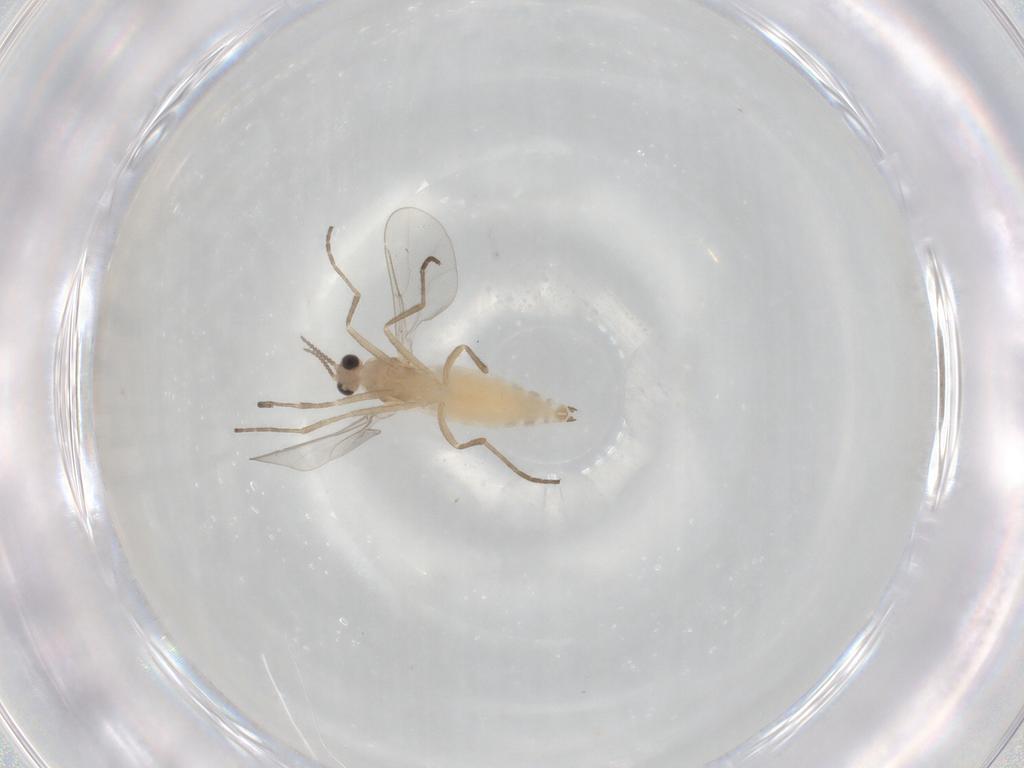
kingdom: Animalia
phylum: Arthropoda
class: Insecta
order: Diptera
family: Cecidomyiidae
